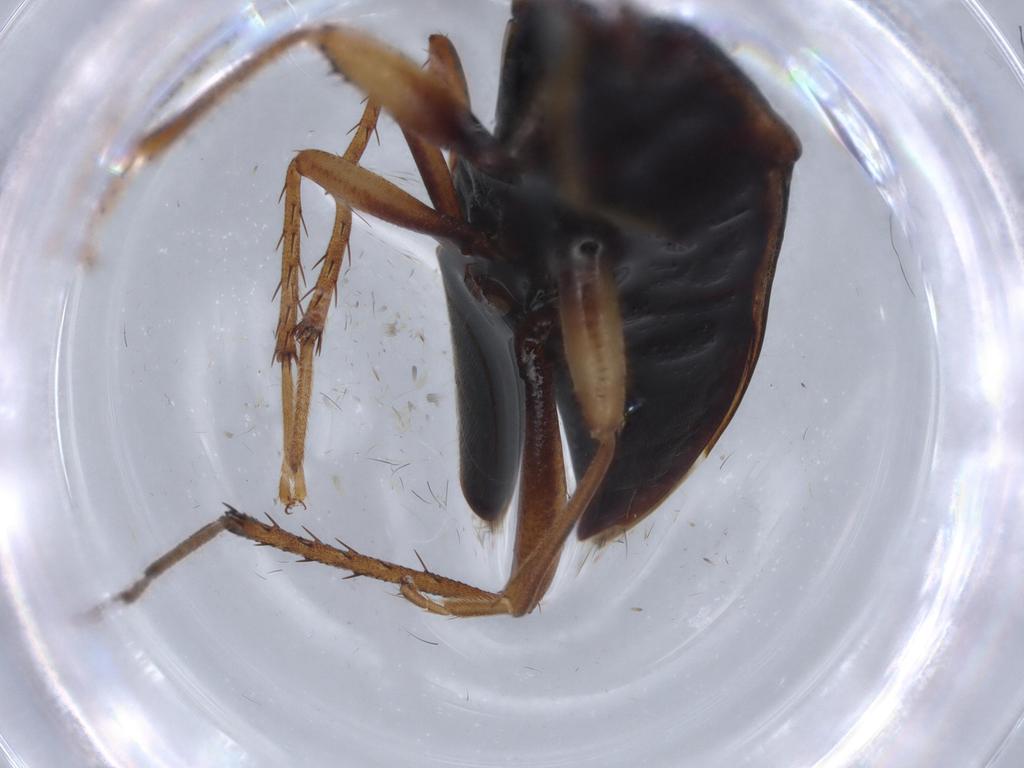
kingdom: Animalia
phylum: Arthropoda
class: Insecta
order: Hemiptera
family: Rhyparochromidae
